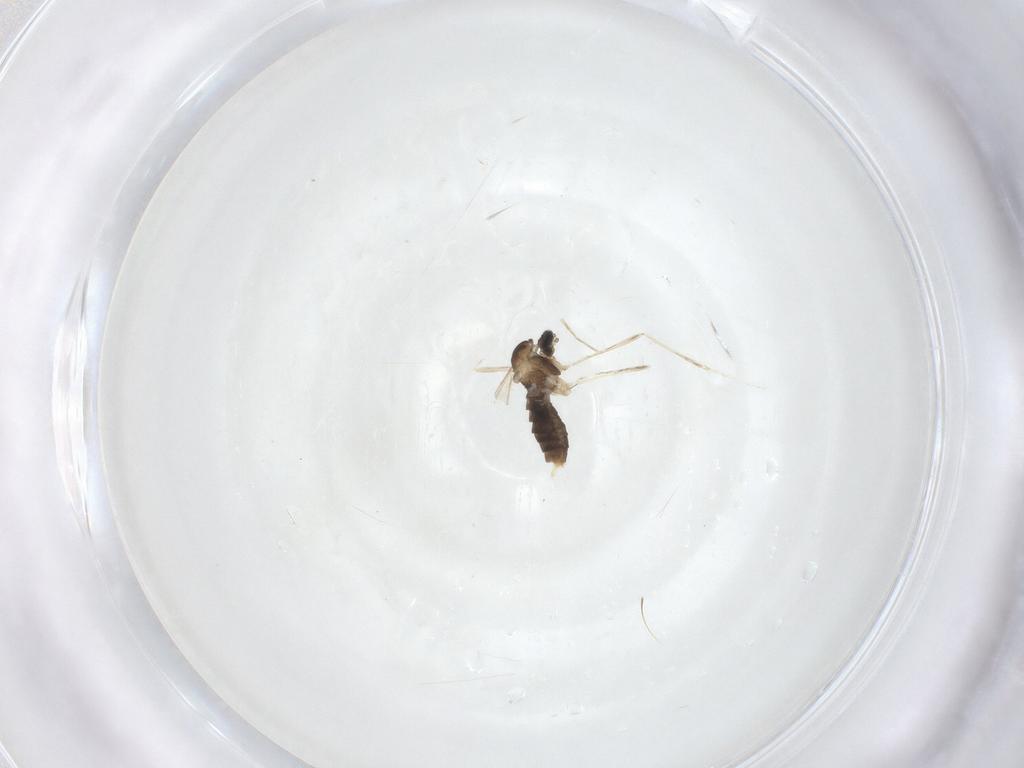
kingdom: Animalia
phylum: Arthropoda
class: Insecta
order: Diptera
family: Cecidomyiidae
